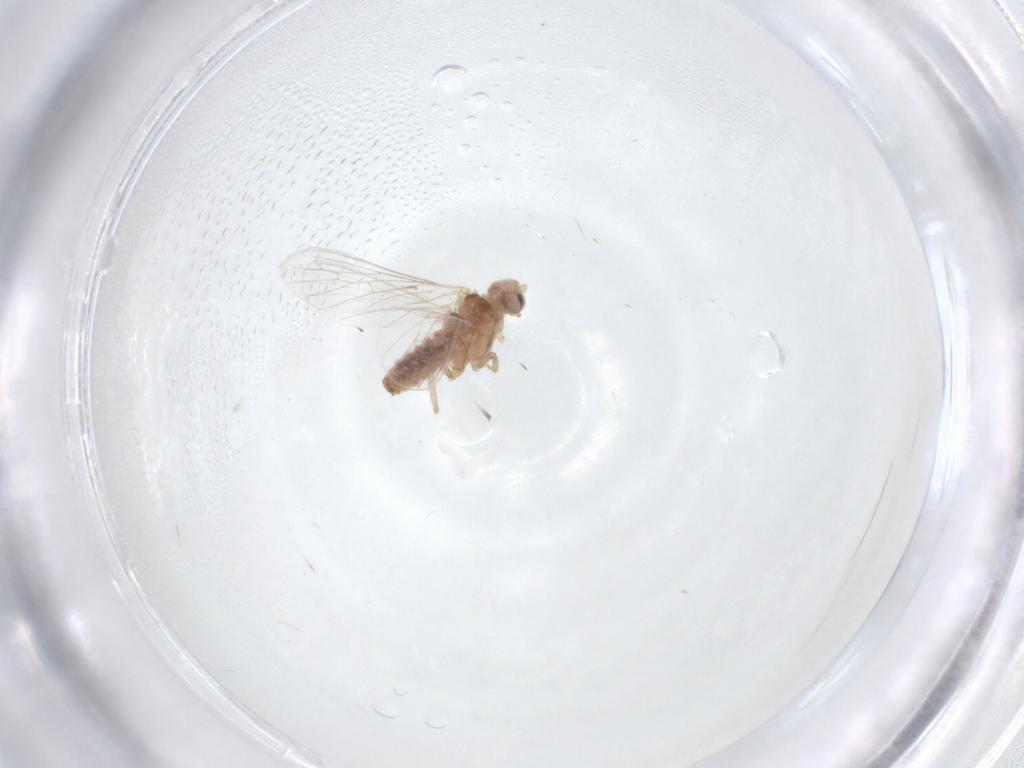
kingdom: Animalia
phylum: Arthropoda
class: Insecta
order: Neuroptera
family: Coniopterygidae
